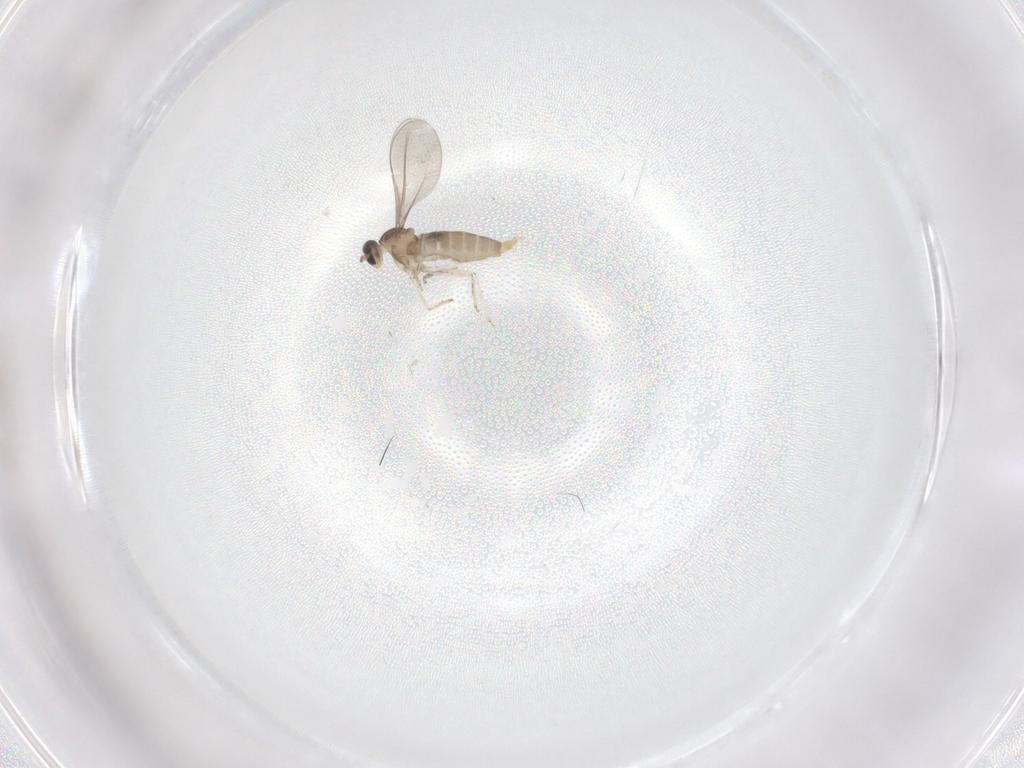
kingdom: Animalia
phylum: Arthropoda
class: Insecta
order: Diptera
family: Cecidomyiidae
